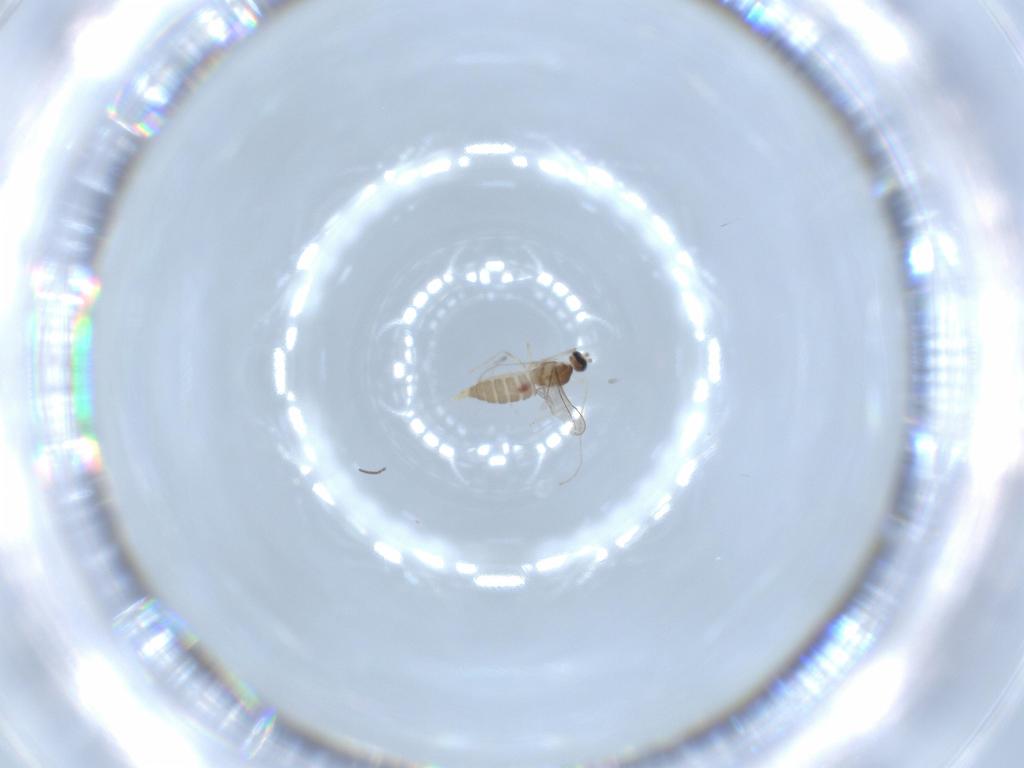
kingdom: Animalia
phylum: Arthropoda
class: Insecta
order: Diptera
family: Cecidomyiidae
